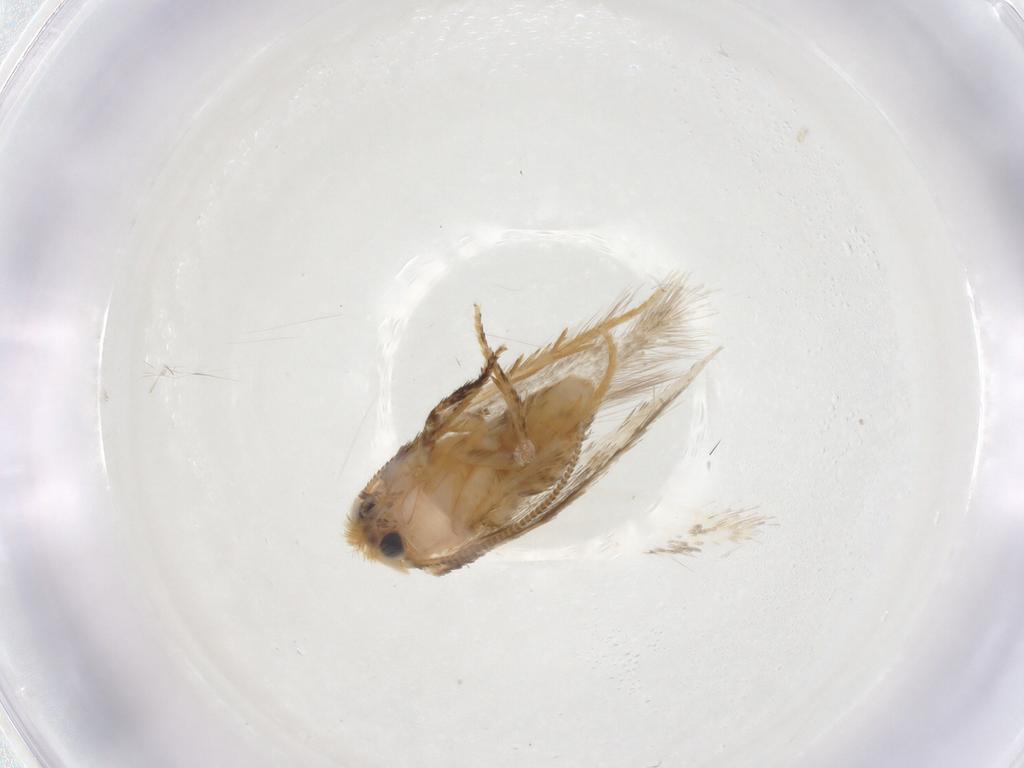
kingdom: Animalia
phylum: Arthropoda
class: Insecta
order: Lepidoptera
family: Nepticulidae
